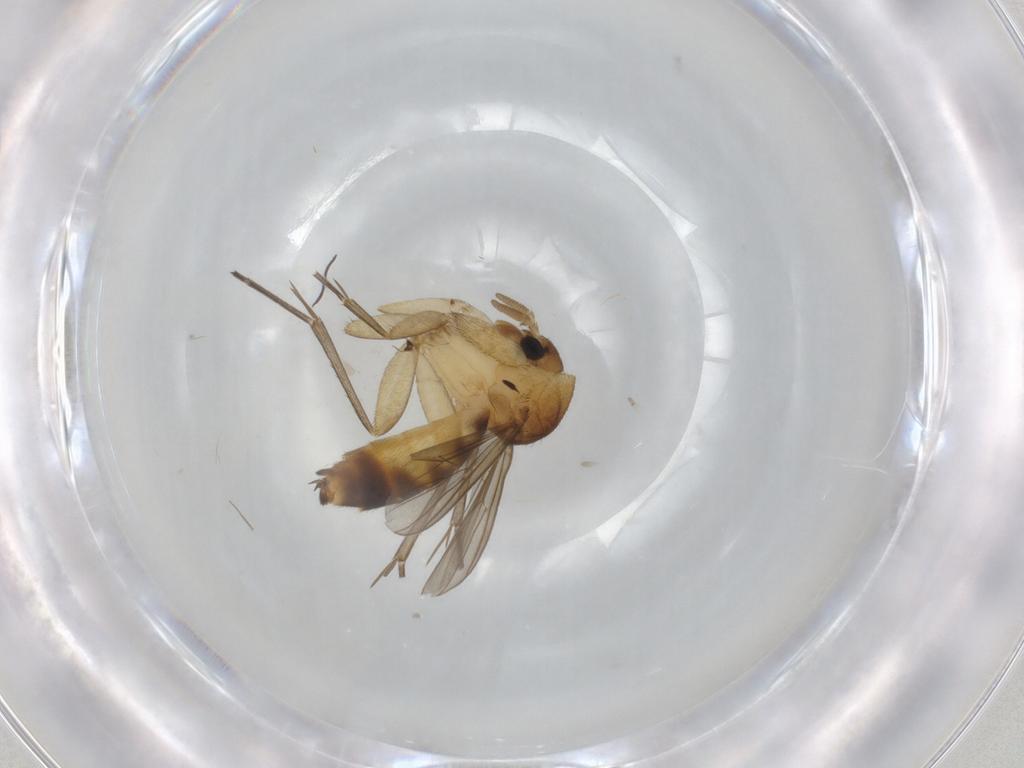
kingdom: Animalia
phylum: Arthropoda
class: Insecta
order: Diptera
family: Mycetophilidae
